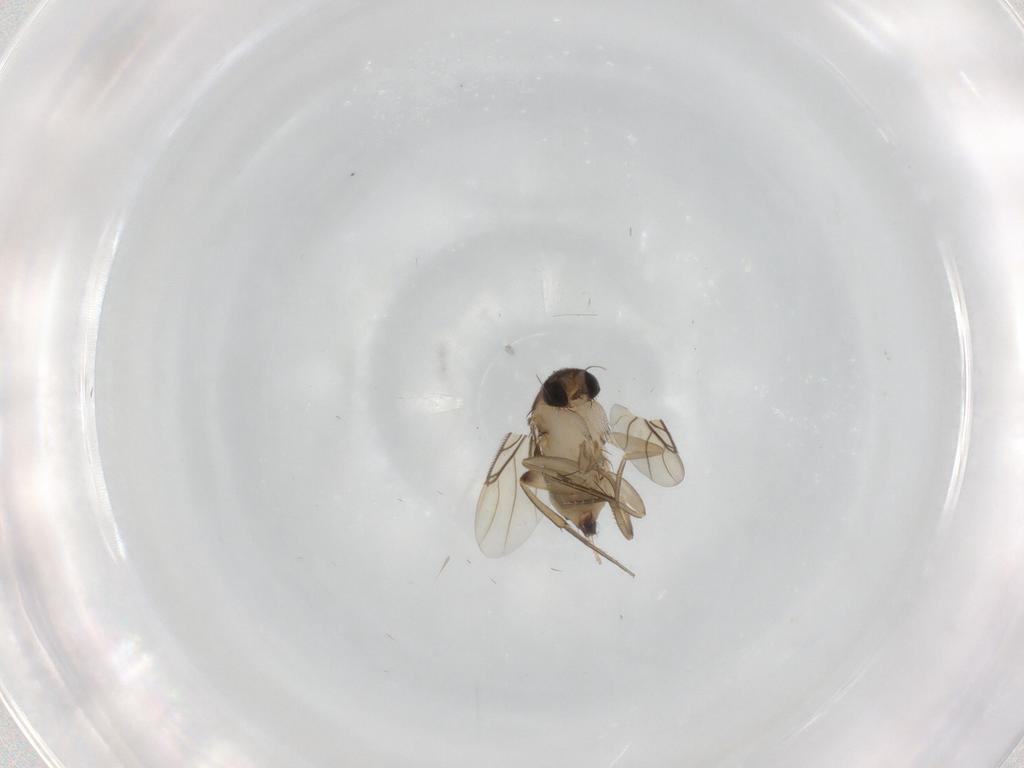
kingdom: Animalia
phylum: Arthropoda
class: Insecta
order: Diptera
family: Phoridae
